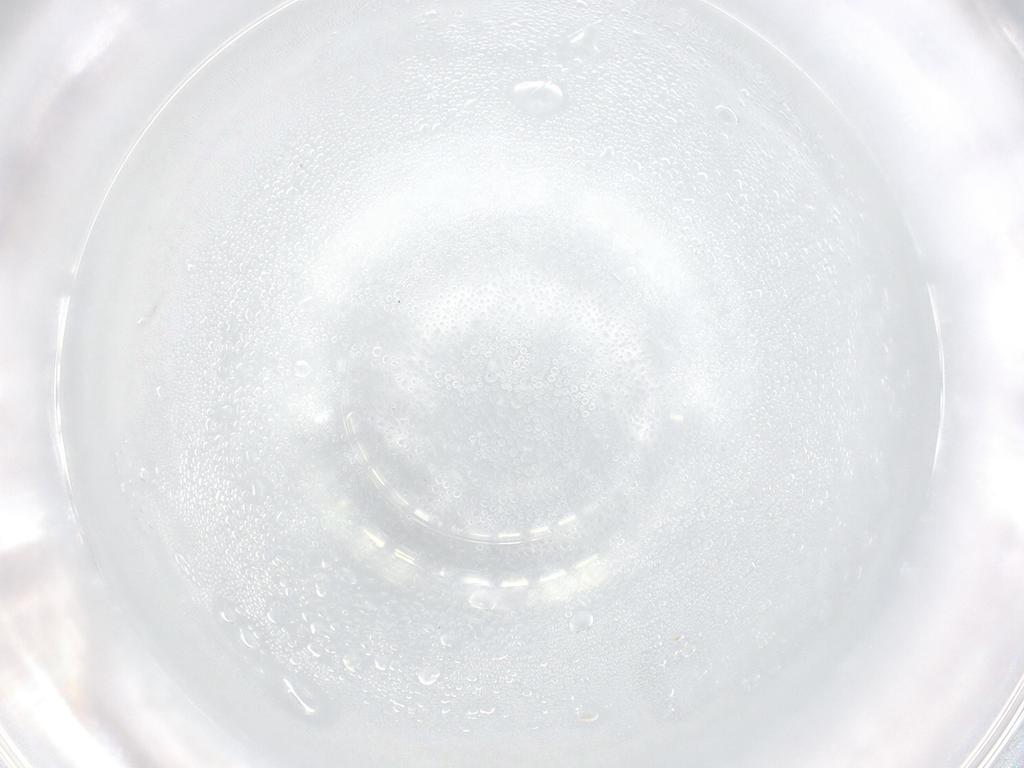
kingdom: Animalia
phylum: Arthropoda
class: Insecta
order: Hymenoptera
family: Trichogrammatidae
